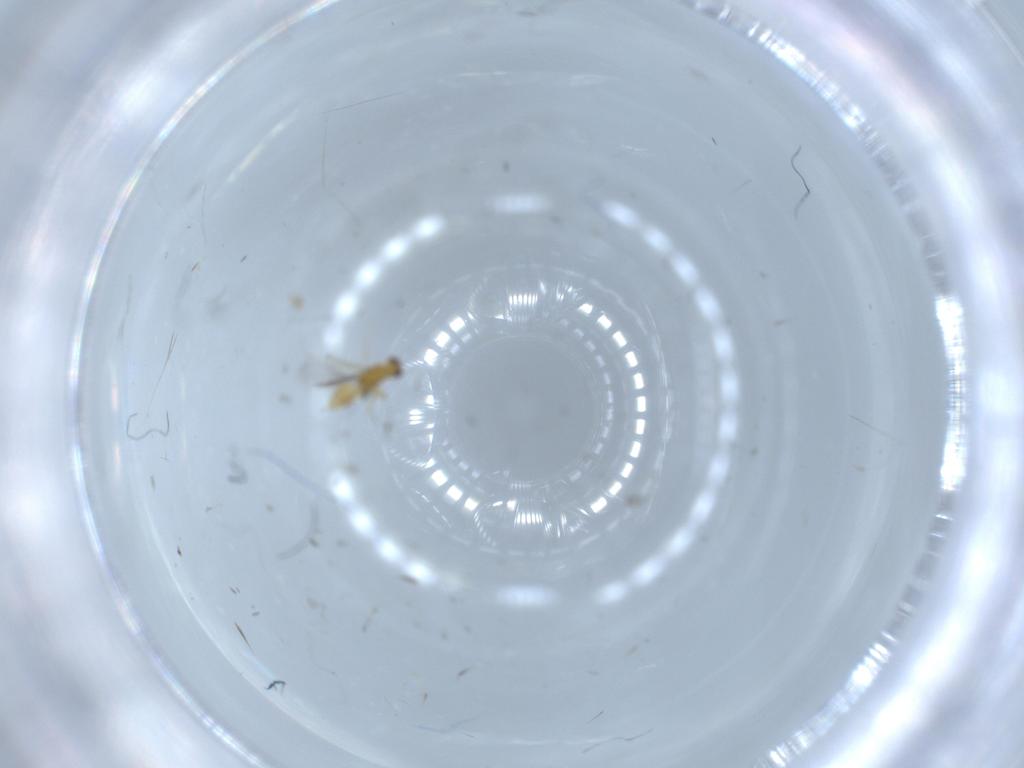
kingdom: Animalia
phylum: Arthropoda
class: Insecta
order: Hymenoptera
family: Mymaridae
